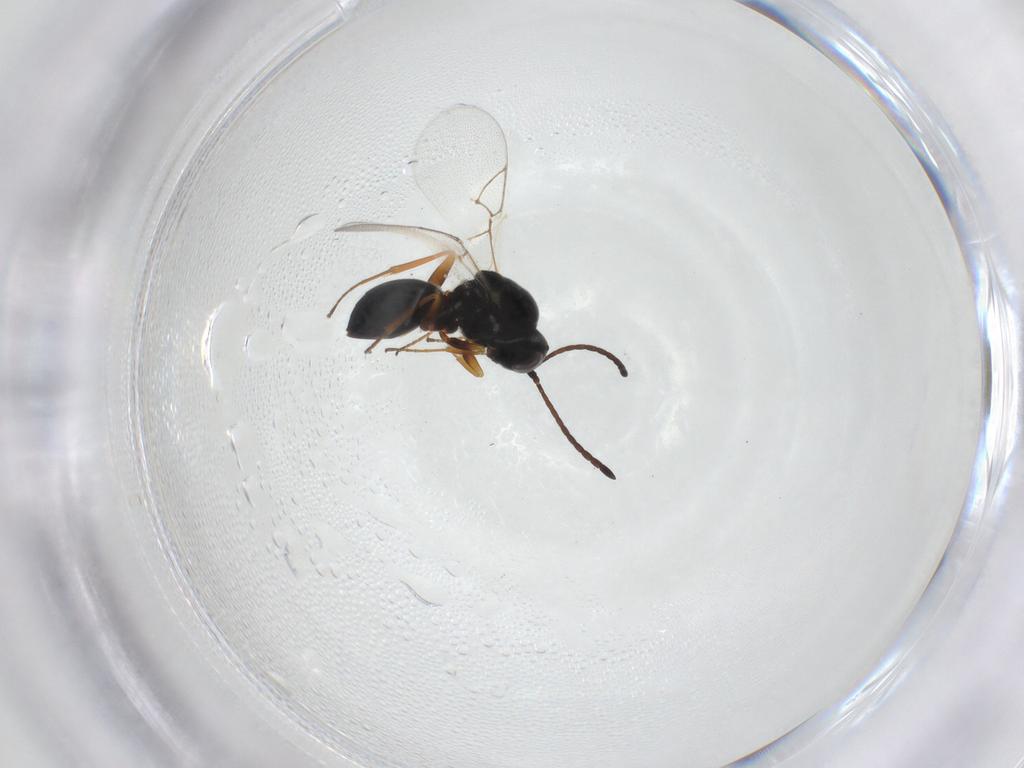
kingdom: Animalia
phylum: Arthropoda
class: Insecta
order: Hymenoptera
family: Figitidae
